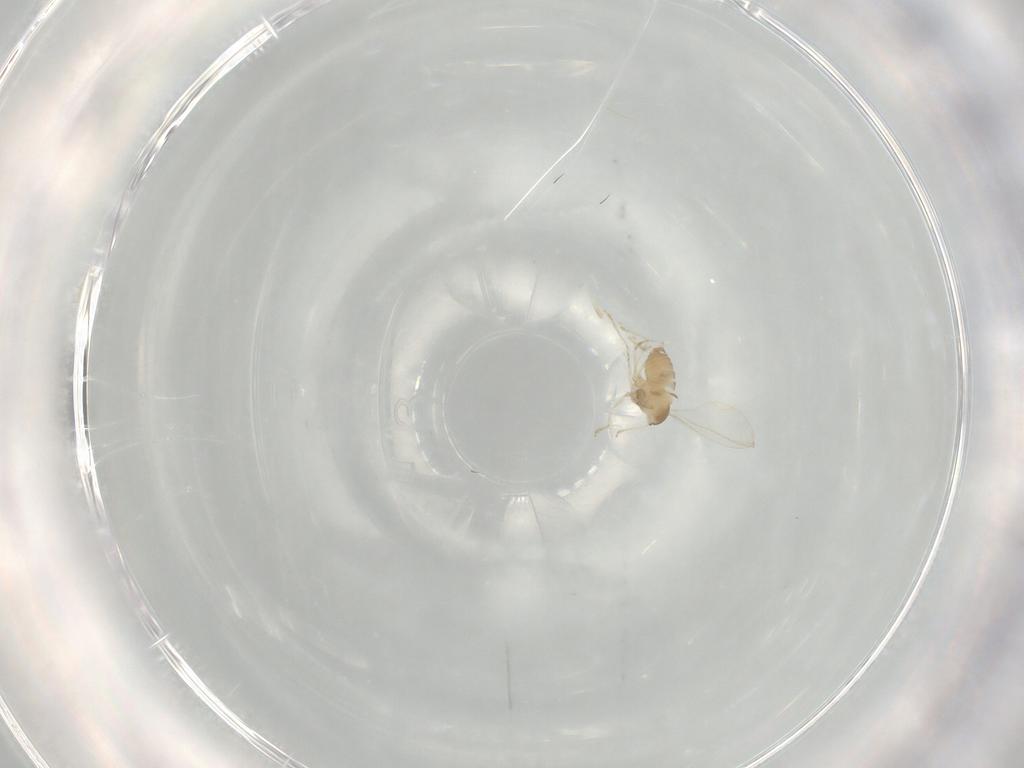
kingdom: Animalia
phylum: Arthropoda
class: Insecta
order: Diptera
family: Cecidomyiidae
